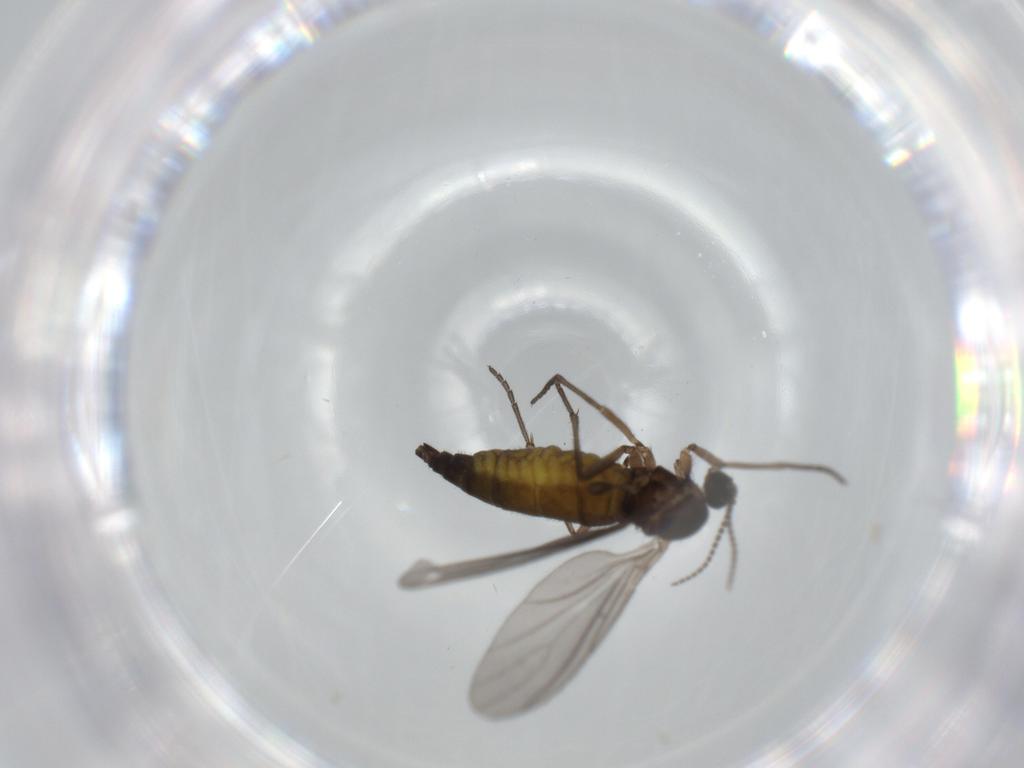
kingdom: Animalia
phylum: Arthropoda
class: Insecta
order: Diptera
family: Sciaridae
